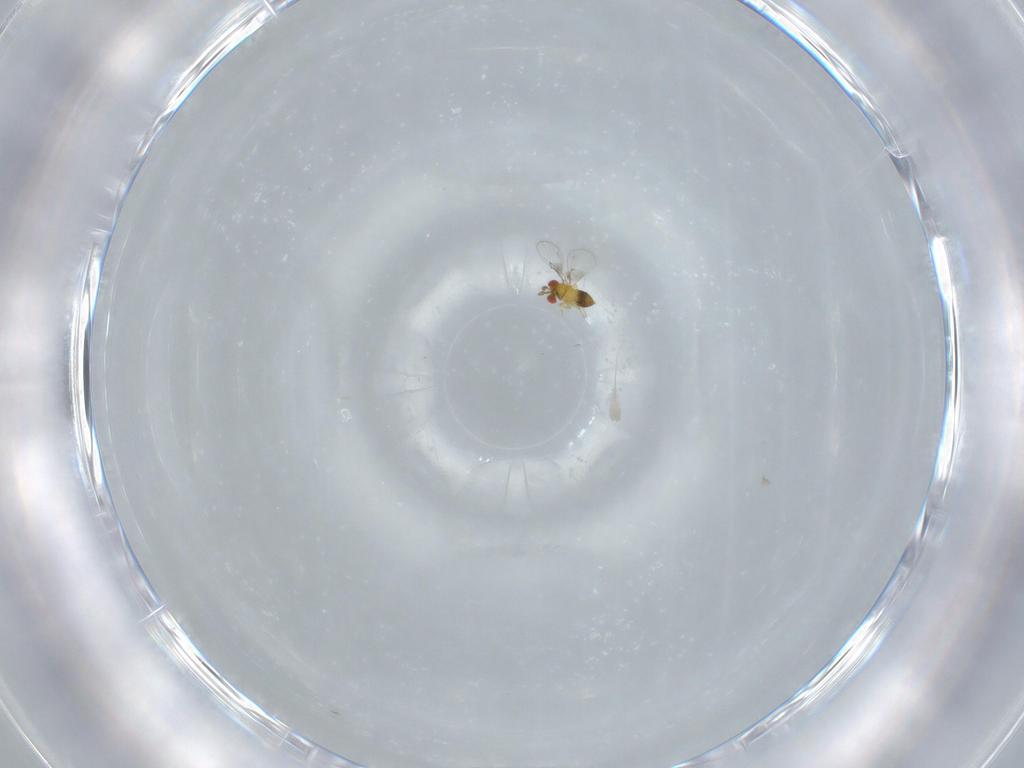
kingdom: Animalia
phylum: Arthropoda
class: Insecta
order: Hymenoptera
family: Trichogrammatidae
